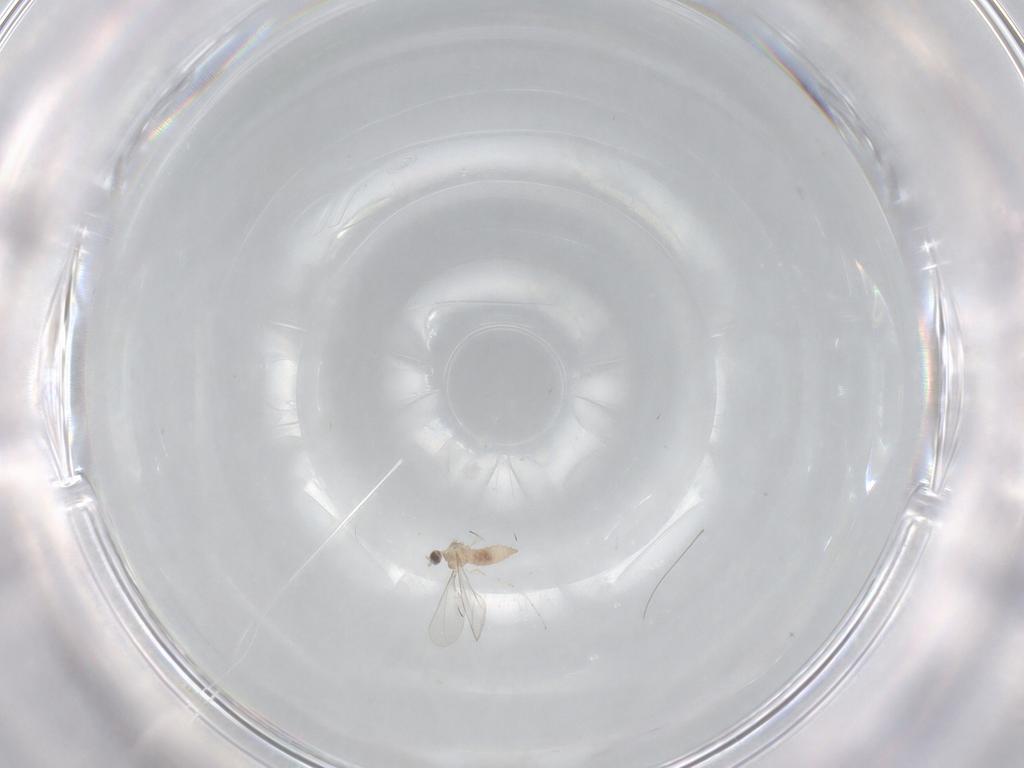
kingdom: Animalia
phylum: Arthropoda
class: Insecta
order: Diptera
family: Cecidomyiidae
